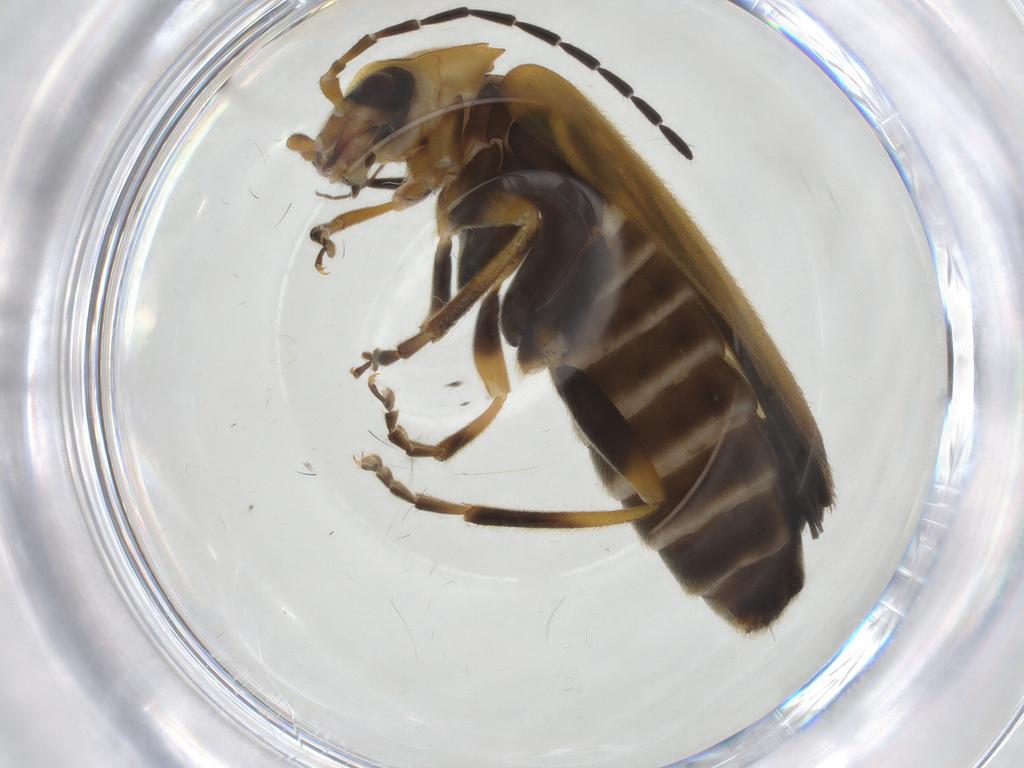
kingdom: Animalia
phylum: Arthropoda
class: Insecta
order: Coleoptera
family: Cantharidae
